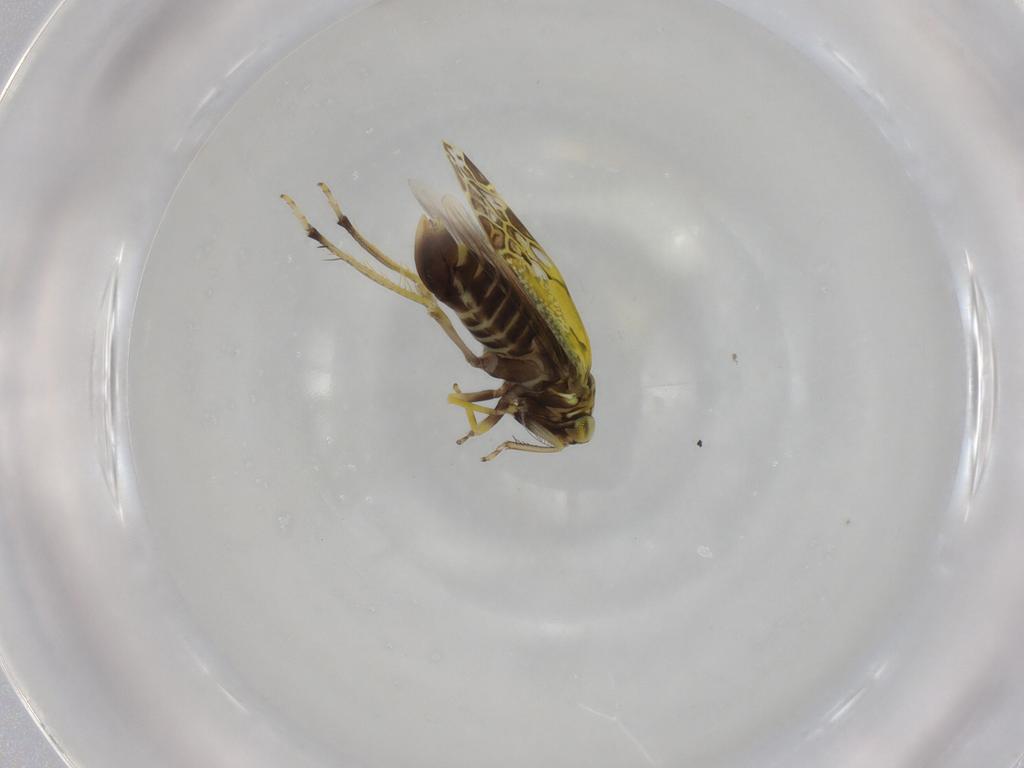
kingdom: Animalia
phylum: Arthropoda
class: Insecta
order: Hemiptera
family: Cicadellidae
